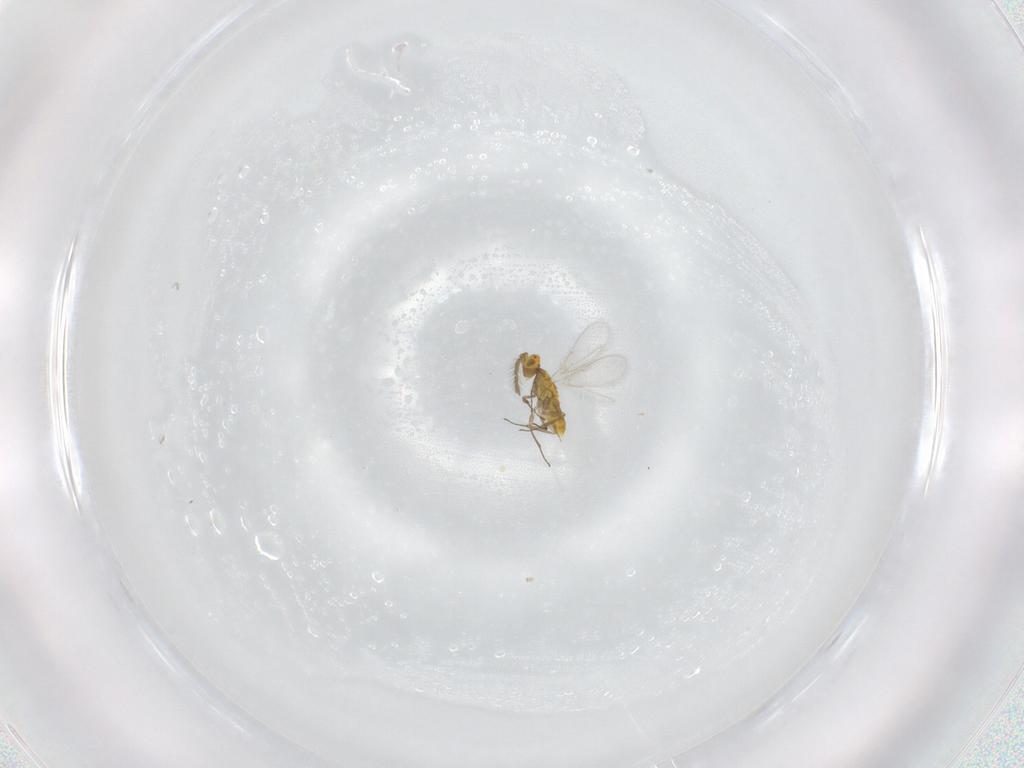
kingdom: Animalia
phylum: Arthropoda
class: Insecta
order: Hymenoptera
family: Aphelinidae
